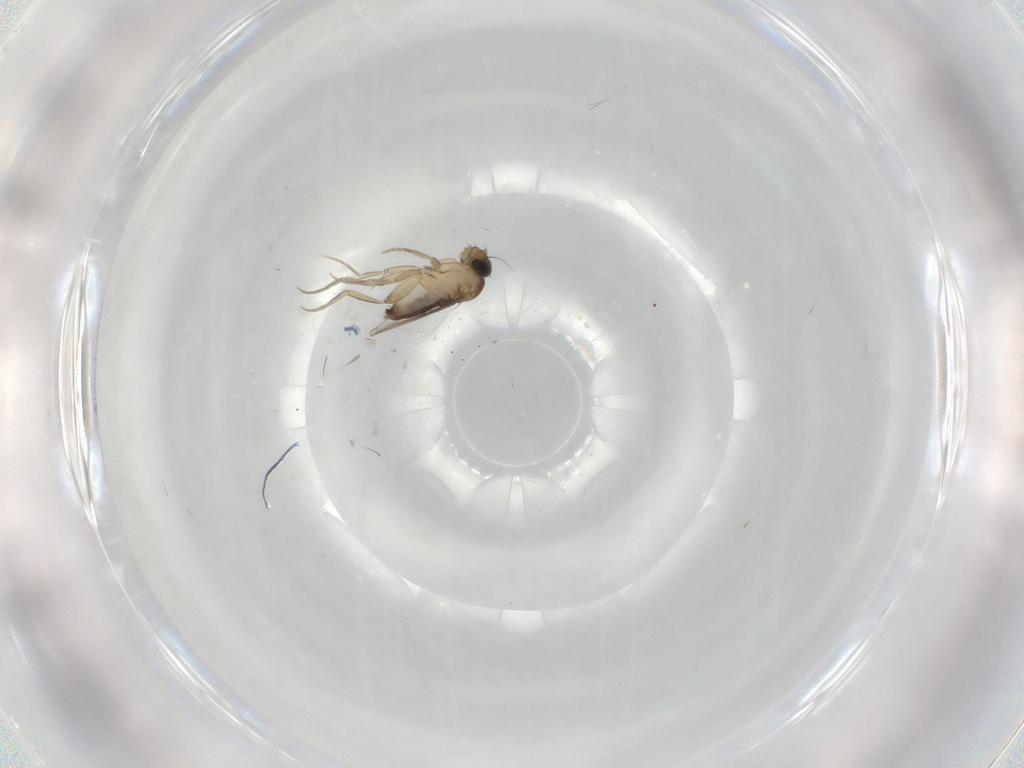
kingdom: Animalia
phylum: Arthropoda
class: Insecta
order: Diptera
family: Phoridae
